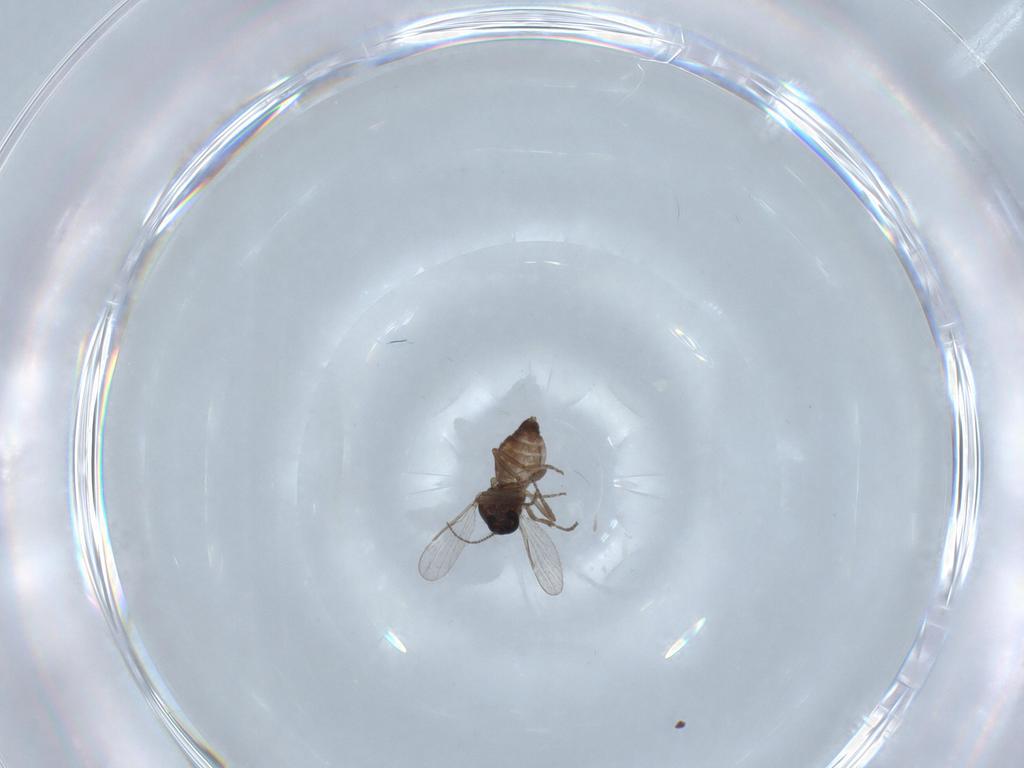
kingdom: Animalia
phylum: Arthropoda
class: Insecta
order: Diptera
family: Ceratopogonidae
